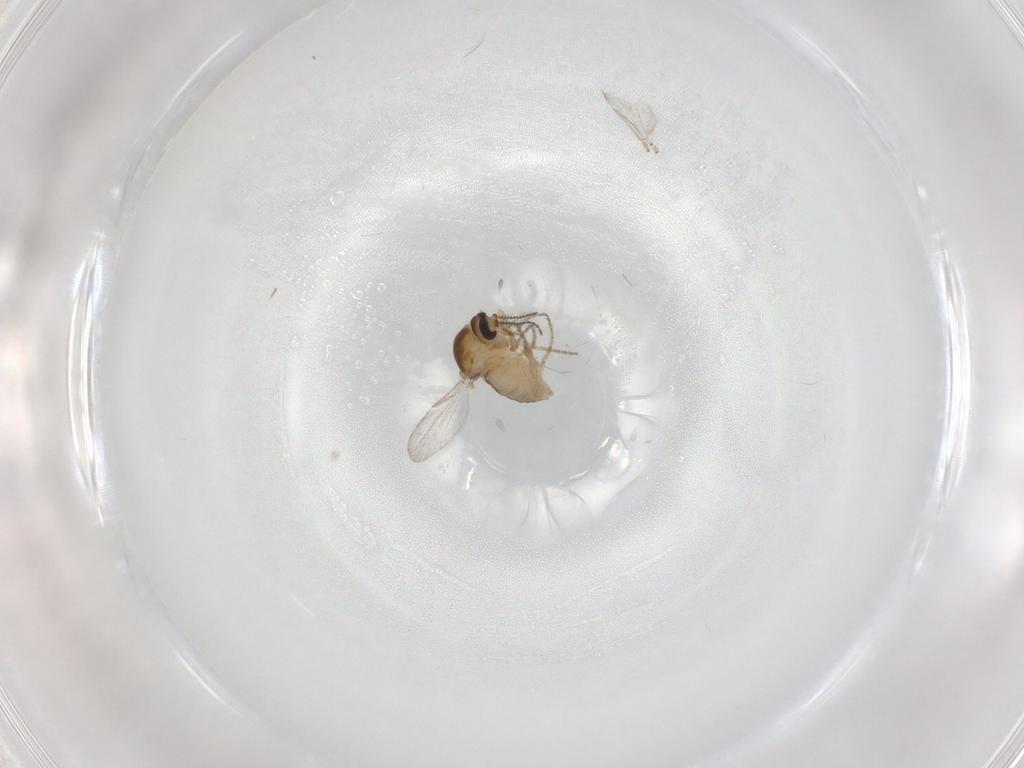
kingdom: Animalia
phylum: Arthropoda
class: Insecta
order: Diptera
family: Ceratopogonidae
